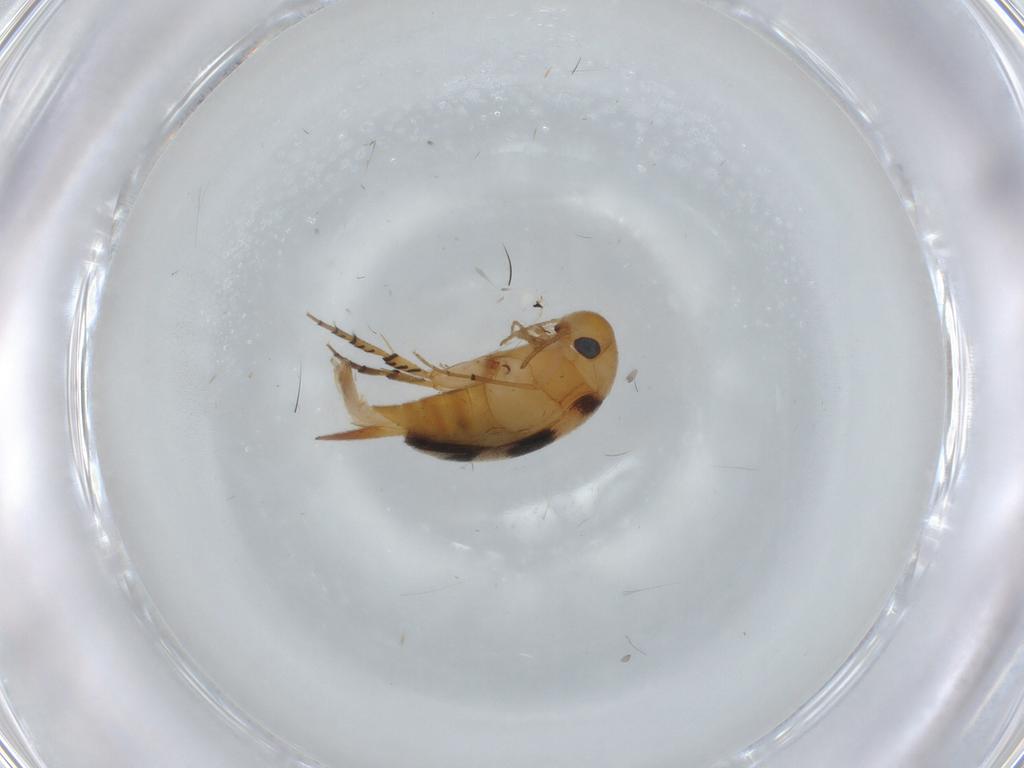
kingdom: Animalia
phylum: Arthropoda
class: Insecta
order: Coleoptera
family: Mordellidae
